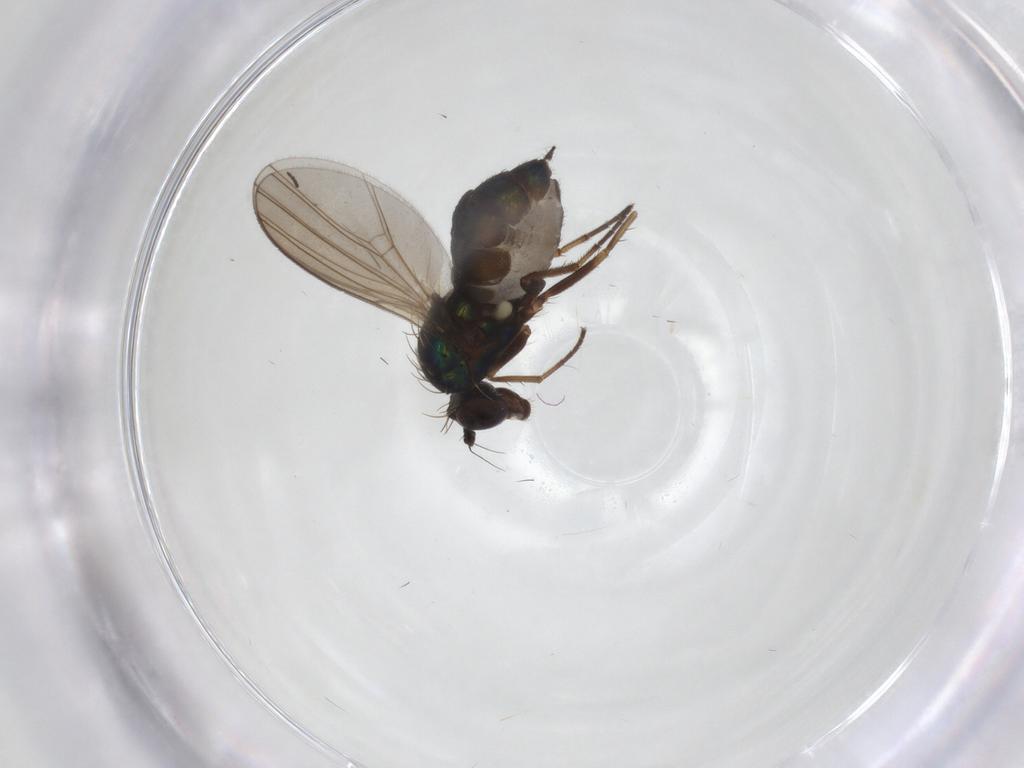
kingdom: Animalia
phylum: Arthropoda
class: Insecta
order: Diptera
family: Dolichopodidae
